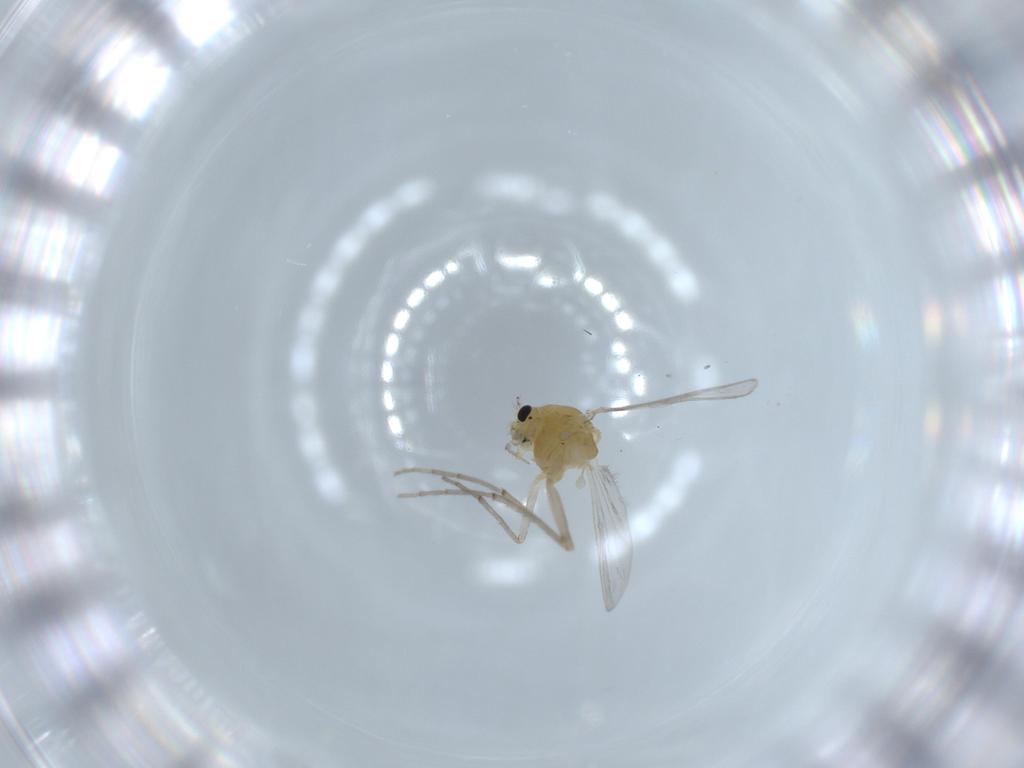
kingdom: Animalia
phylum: Arthropoda
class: Insecta
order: Diptera
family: Chironomidae
